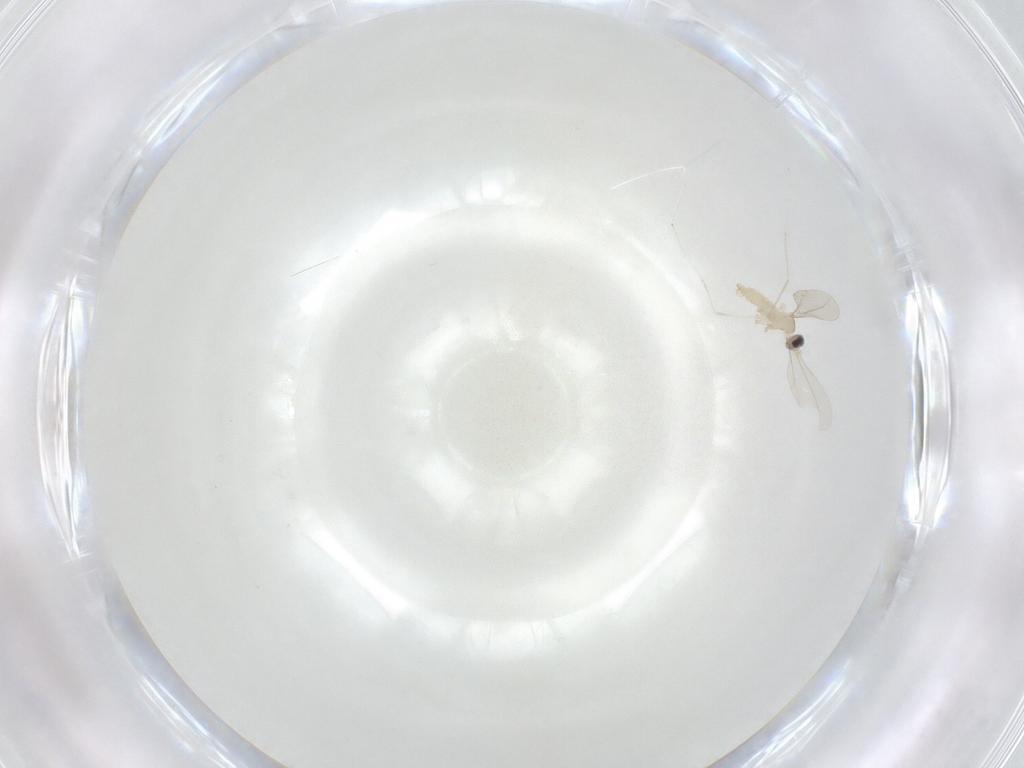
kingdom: Animalia
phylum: Arthropoda
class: Insecta
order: Diptera
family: Cecidomyiidae
